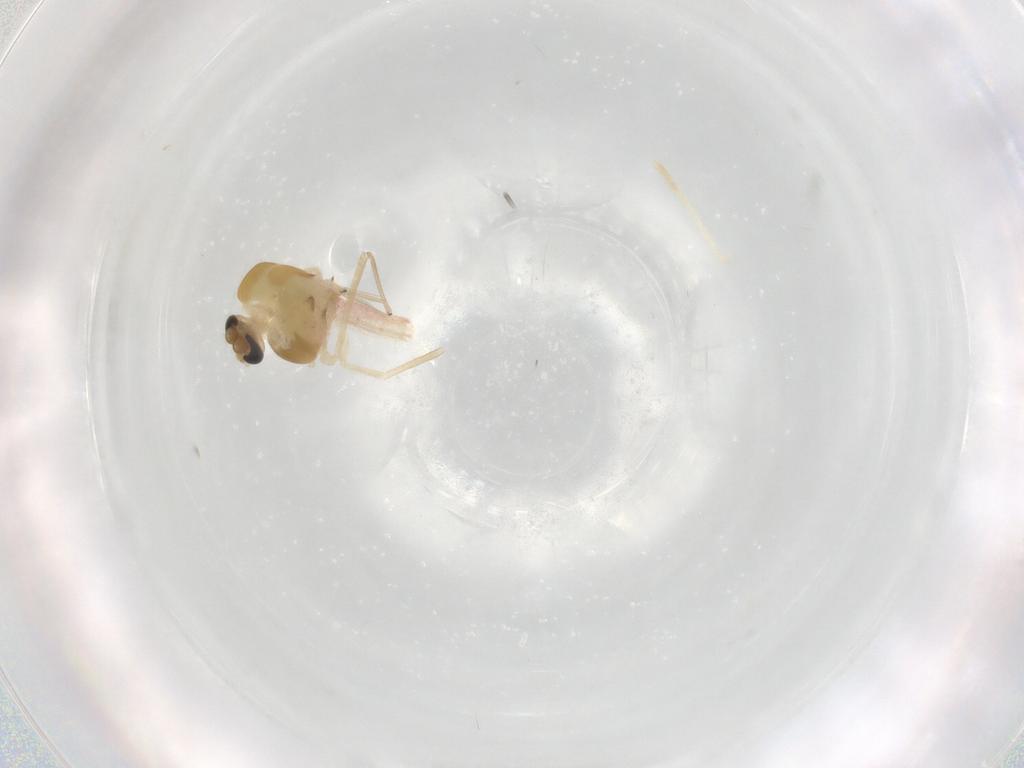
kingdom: Animalia
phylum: Arthropoda
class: Insecta
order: Diptera
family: Chironomidae
